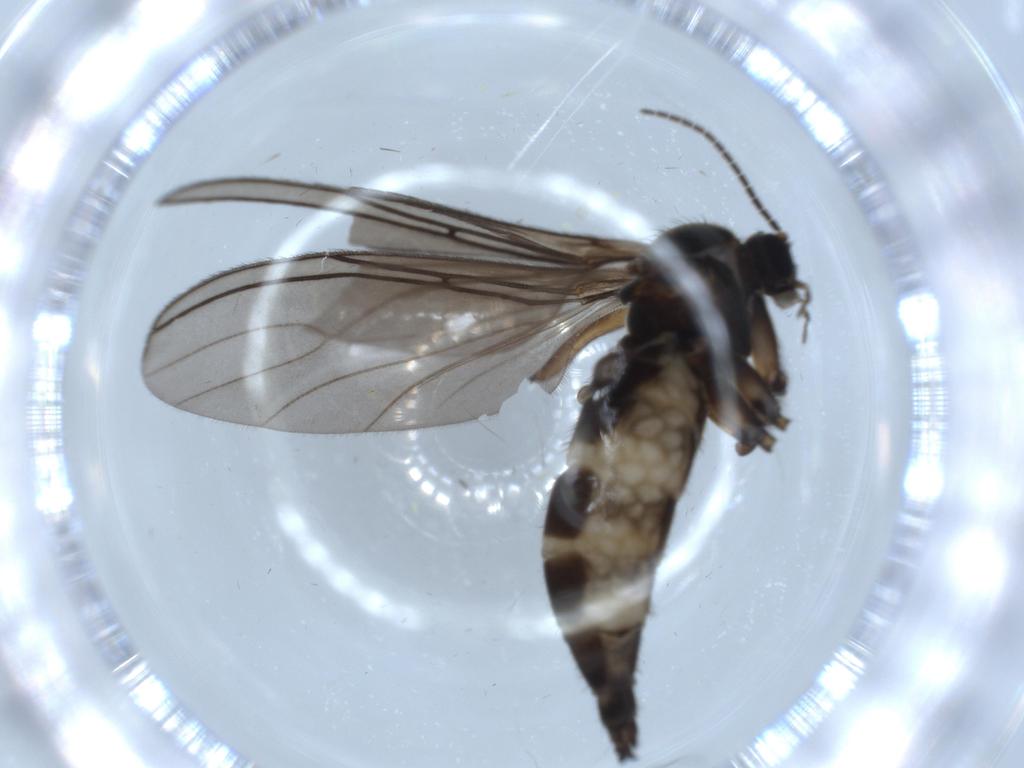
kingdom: Animalia
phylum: Arthropoda
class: Insecta
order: Diptera
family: Sciaridae
